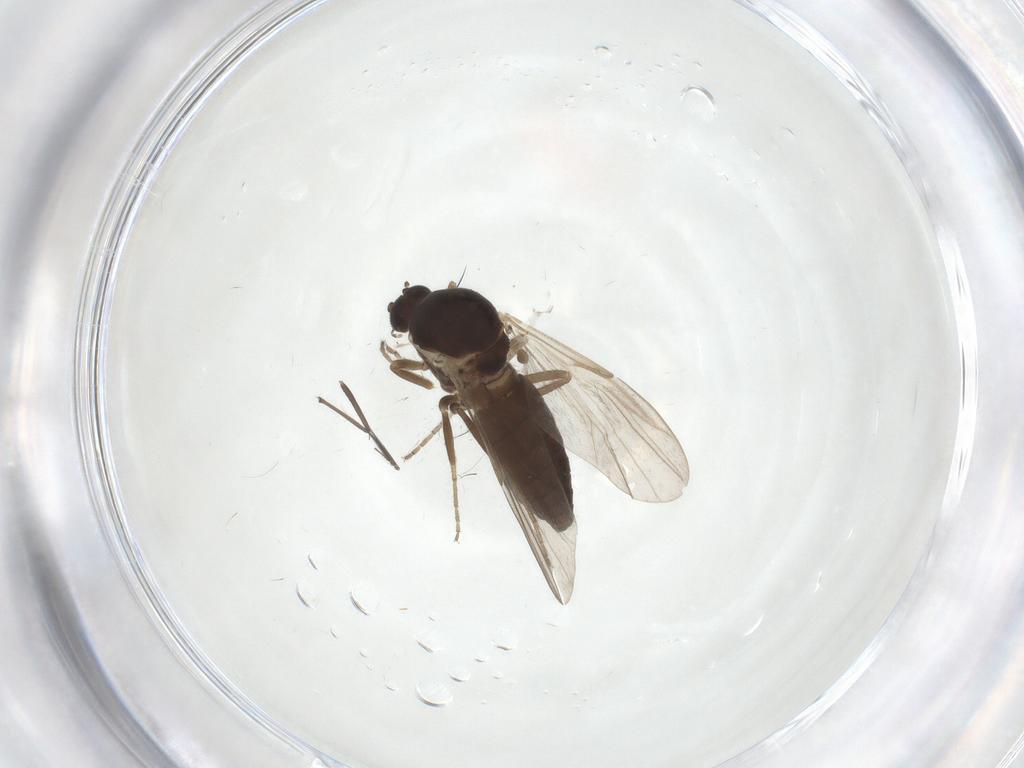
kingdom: Animalia
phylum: Arthropoda
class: Insecta
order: Diptera
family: Ceratopogonidae
